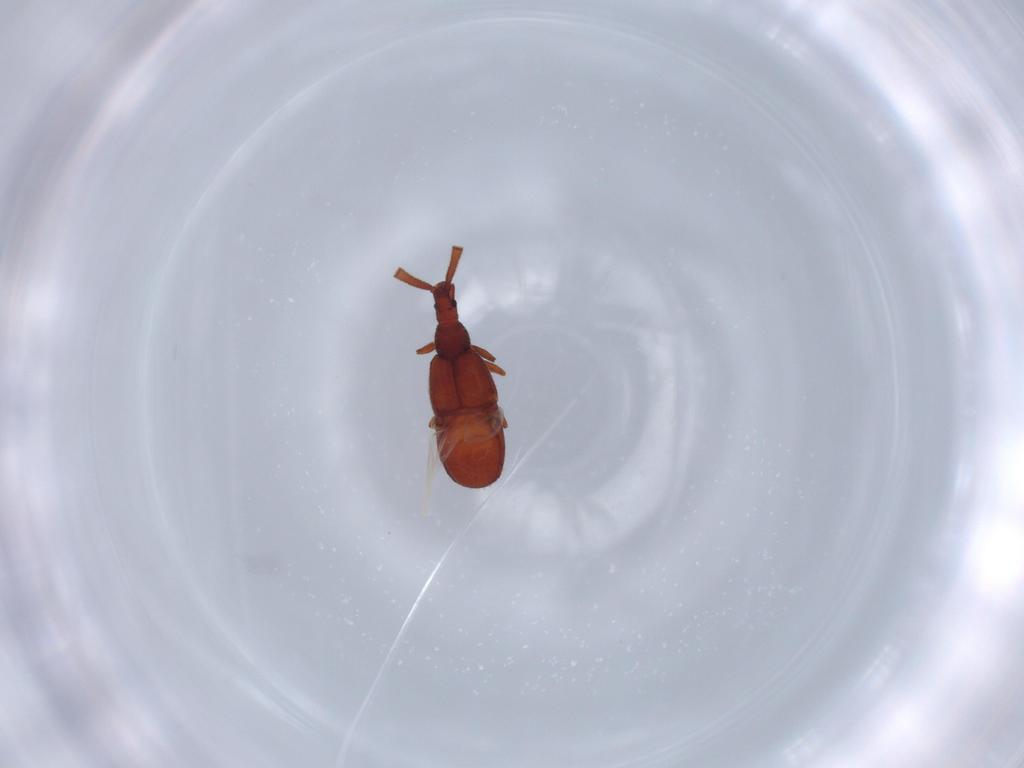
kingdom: Animalia
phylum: Arthropoda
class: Insecta
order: Coleoptera
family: Staphylinidae
